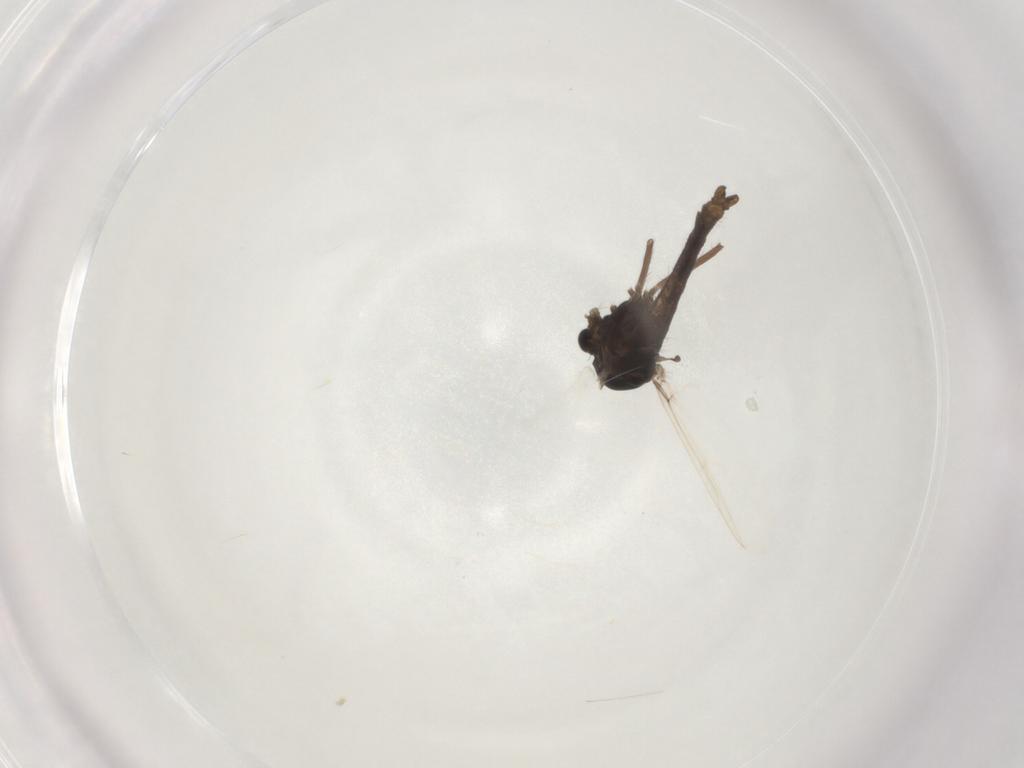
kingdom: Animalia
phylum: Arthropoda
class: Insecta
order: Diptera
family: Chironomidae
